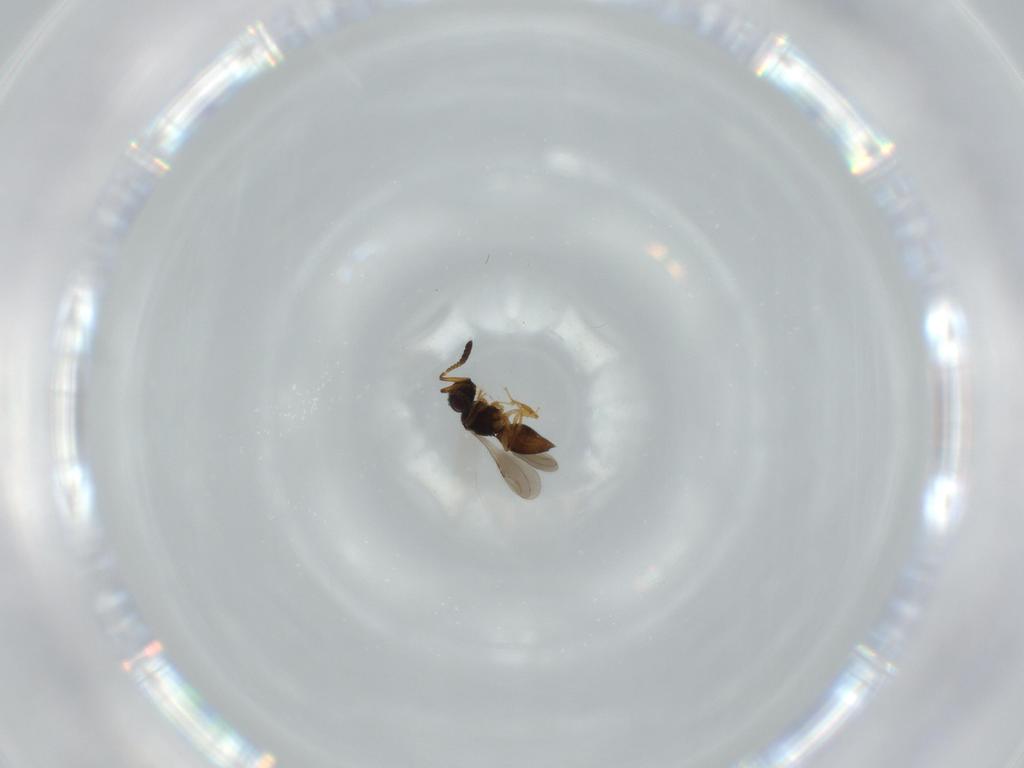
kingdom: Animalia
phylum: Arthropoda
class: Insecta
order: Hymenoptera
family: Ceraphronidae
